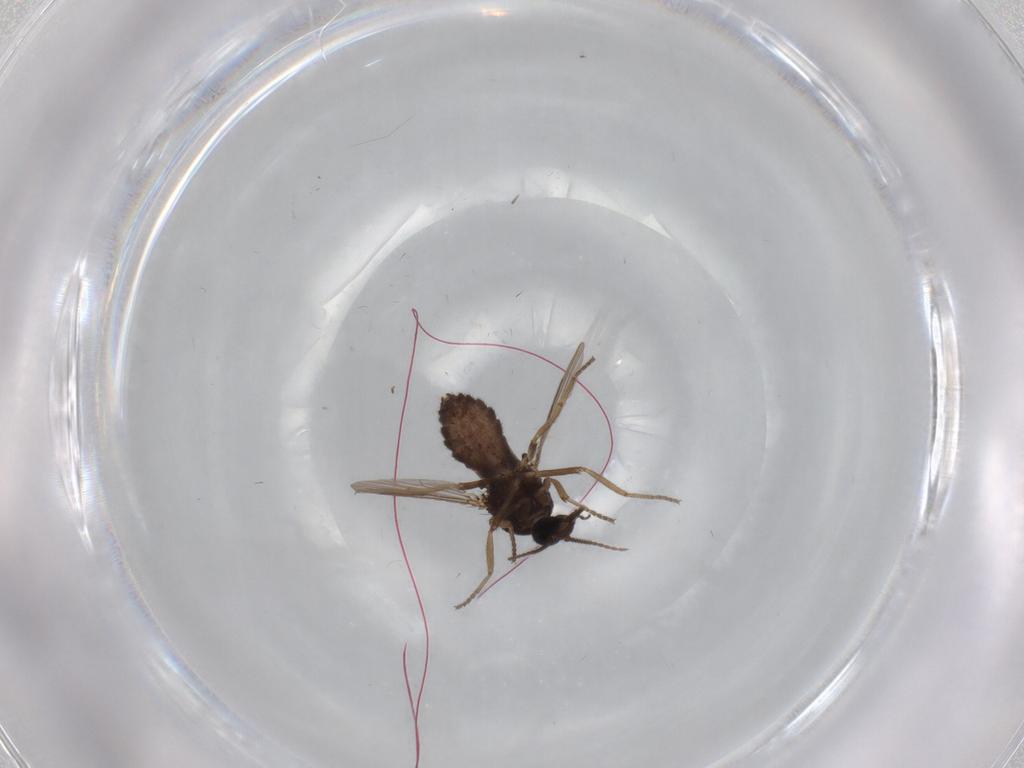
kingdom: Animalia
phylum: Arthropoda
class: Insecta
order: Diptera
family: Ceratopogonidae
